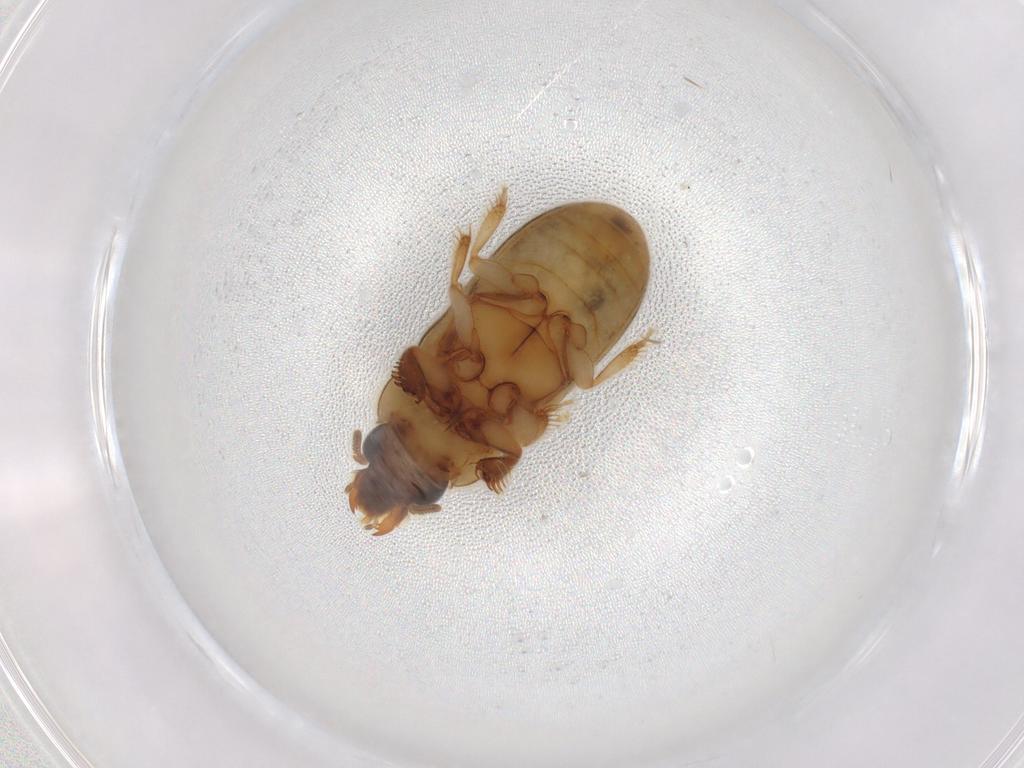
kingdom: Animalia
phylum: Arthropoda
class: Insecta
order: Coleoptera
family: Heteroceridae
